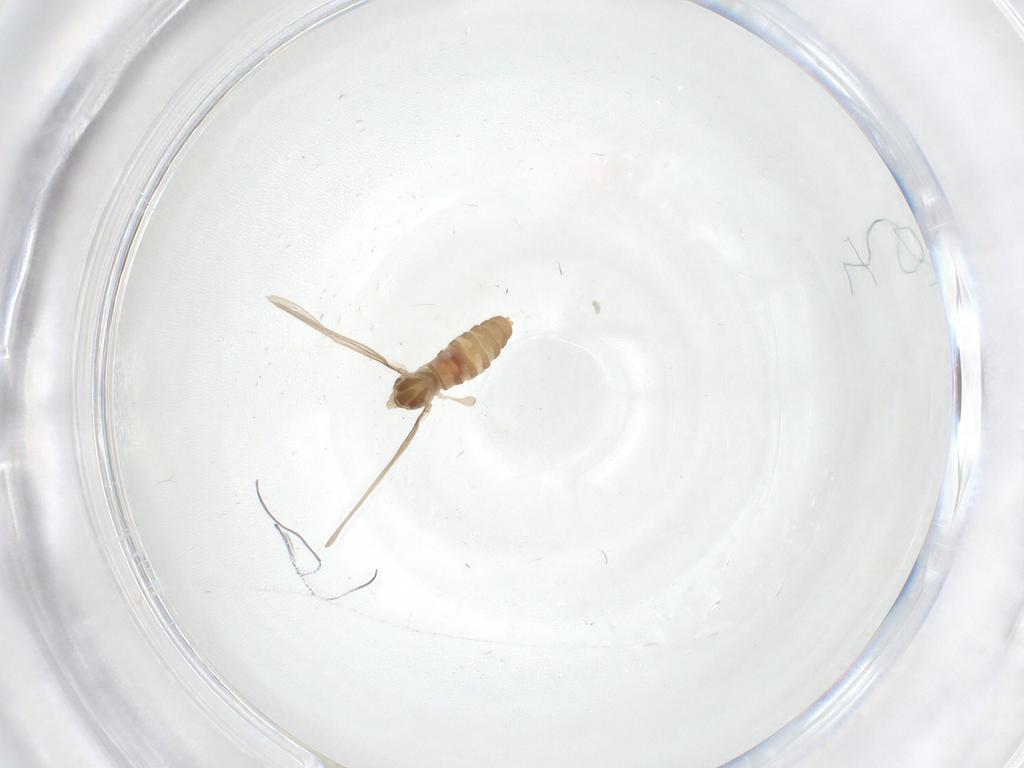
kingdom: Animalia
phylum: Arthropoda
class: Insecta
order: Diptera
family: Cecidomyiidae
